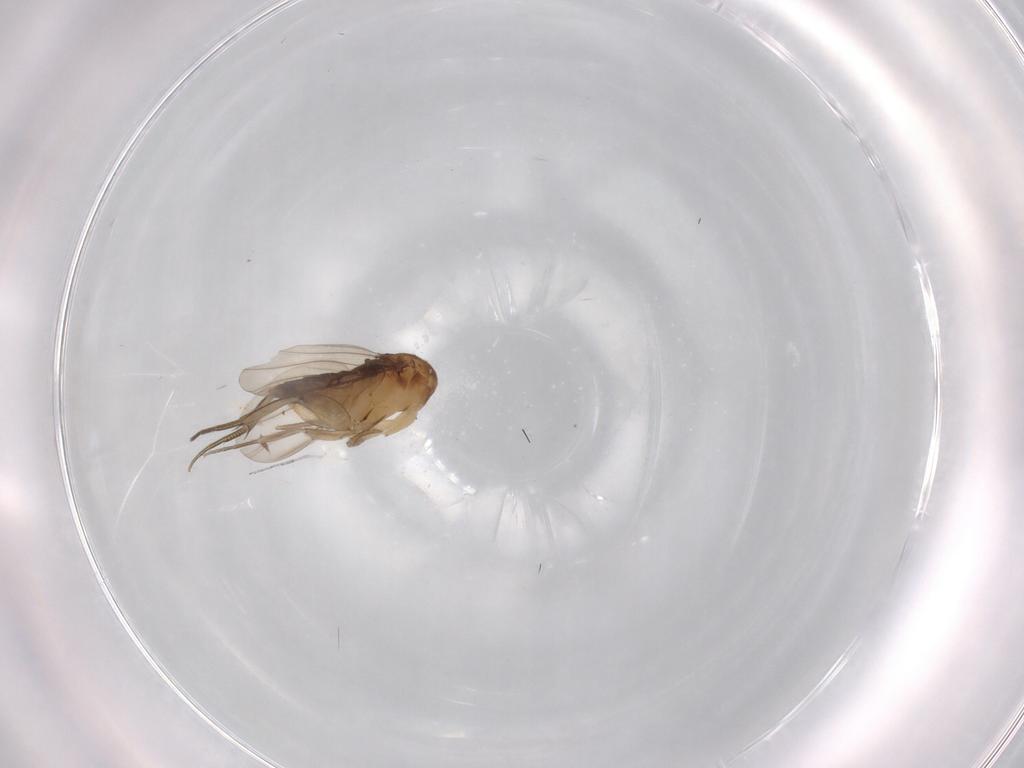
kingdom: Animalia
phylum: Arthropoda
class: Insecta
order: Diptera
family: Phoridae
